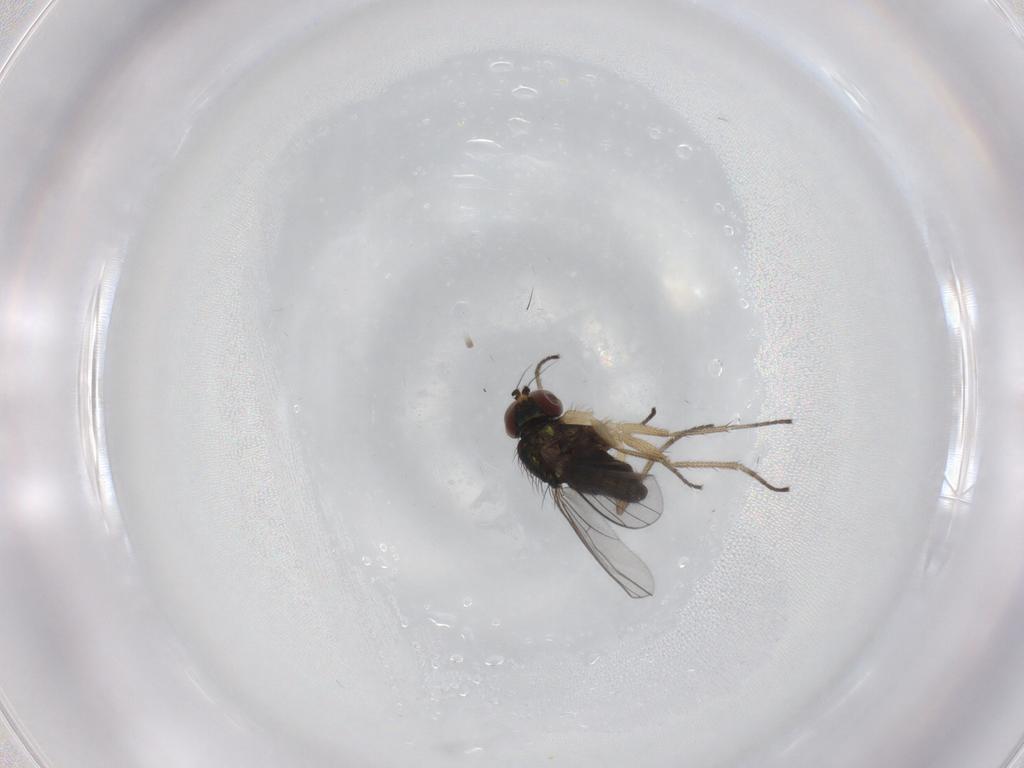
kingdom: Animalia
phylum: Arthropoda
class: Insecta
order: Diptera
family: Dolichopodidae
